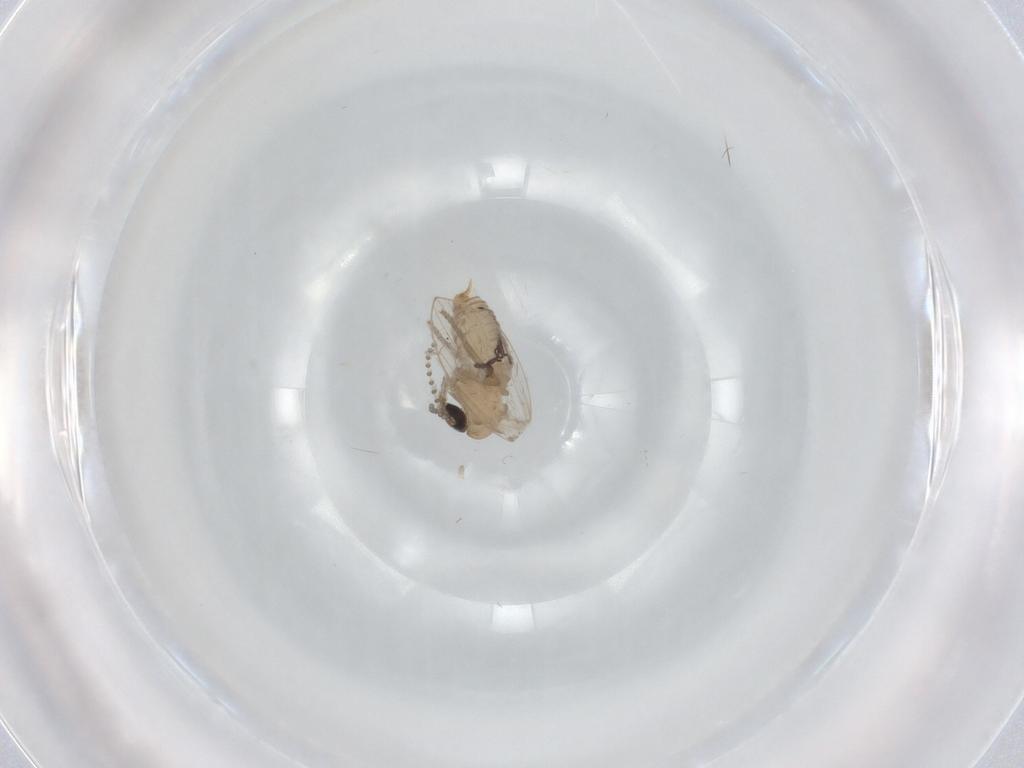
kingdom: Animalia
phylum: Arthropoda
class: Insecta
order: Diptera
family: Psychodidae
